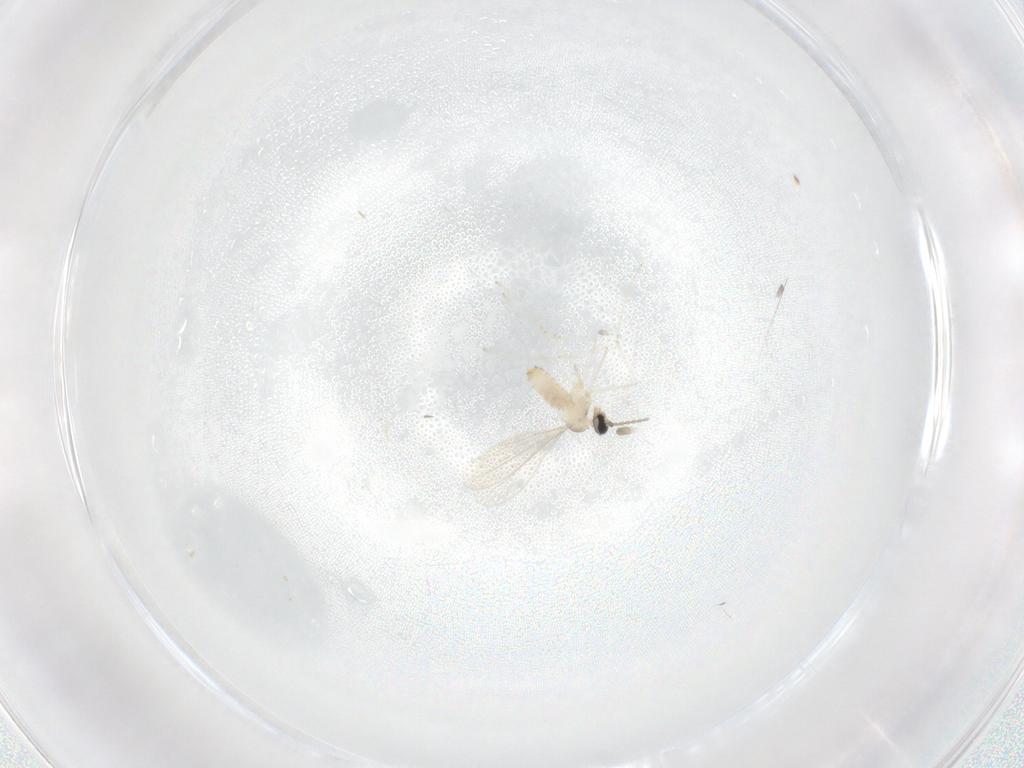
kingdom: Animalia
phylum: Arthropoda
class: Insecta
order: Diptera
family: Cecidomyiidae
